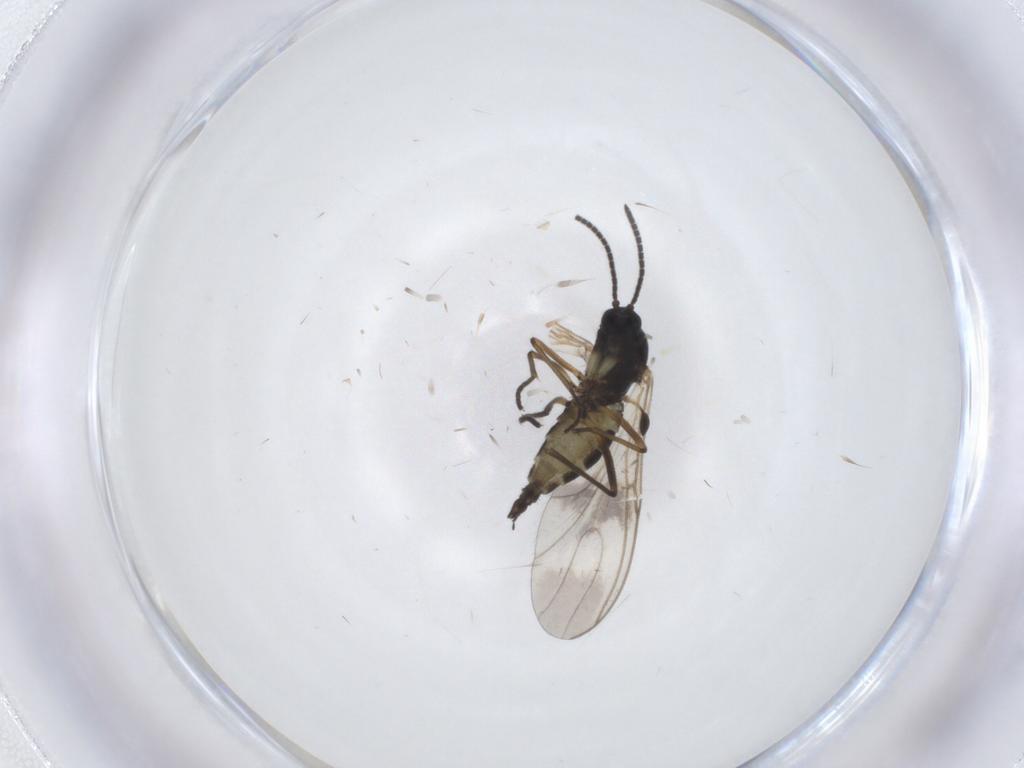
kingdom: Animalia
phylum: Arthropoda
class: Insecta
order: Diptera
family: Sciaridae
